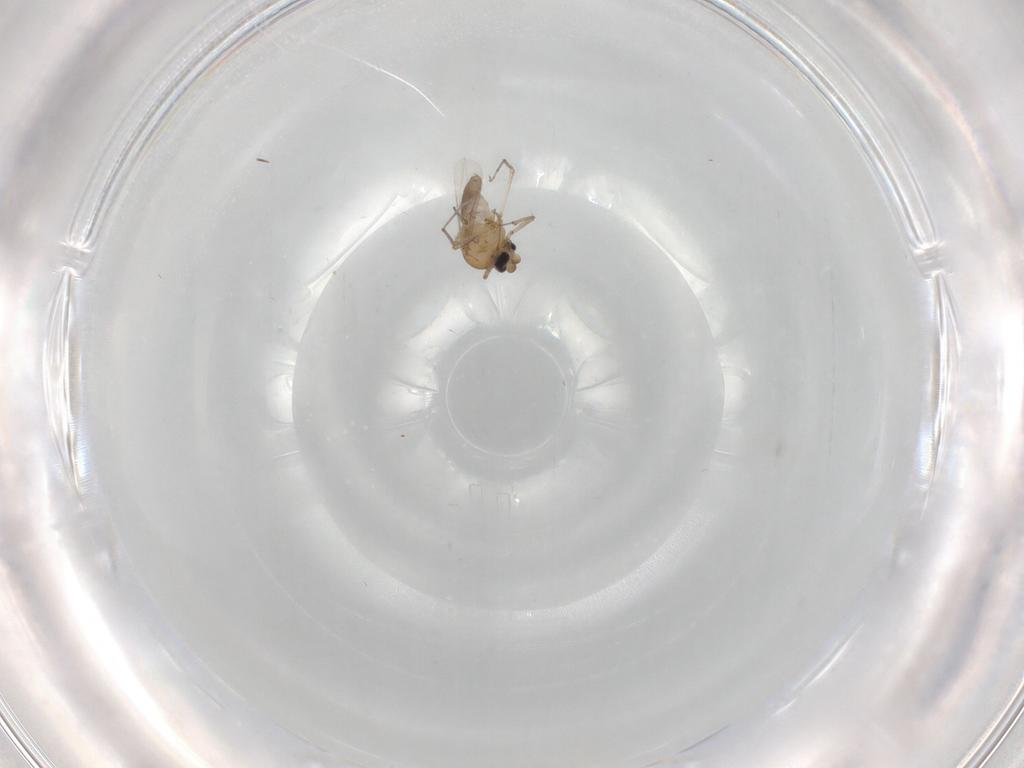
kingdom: Animalia
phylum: Arthropoda
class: Insecta
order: Diptera
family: Ceratopogonidae
